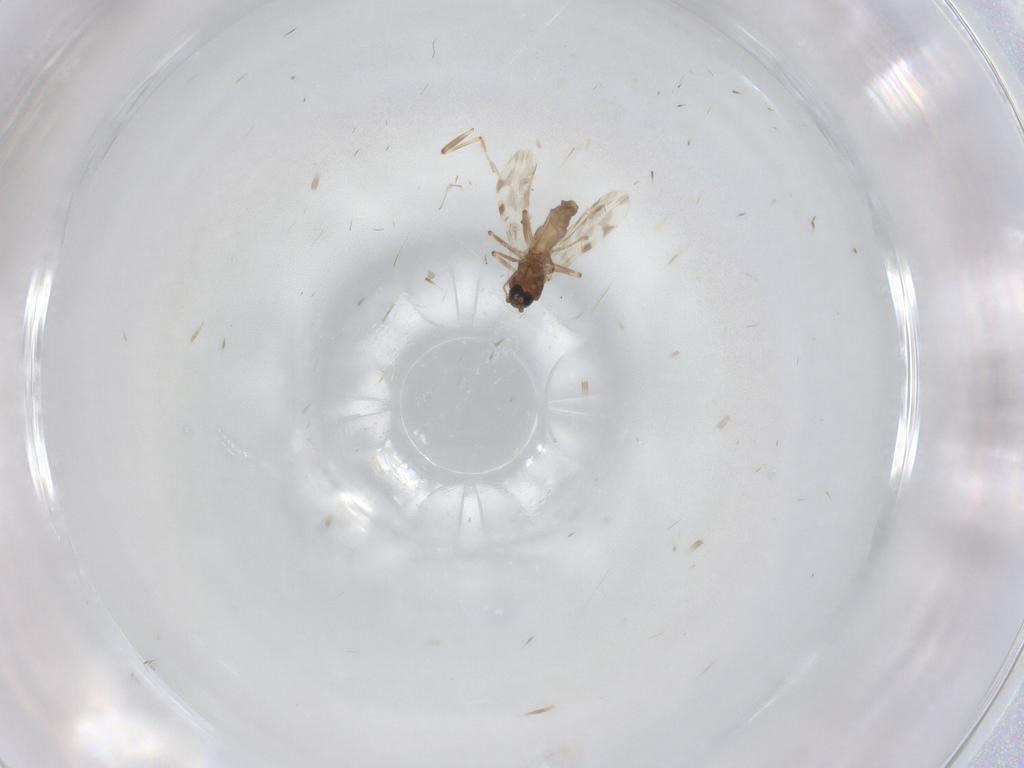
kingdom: Animalia
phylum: Arthropoda
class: Insecta
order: Diptera
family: Ceratopogonidae
